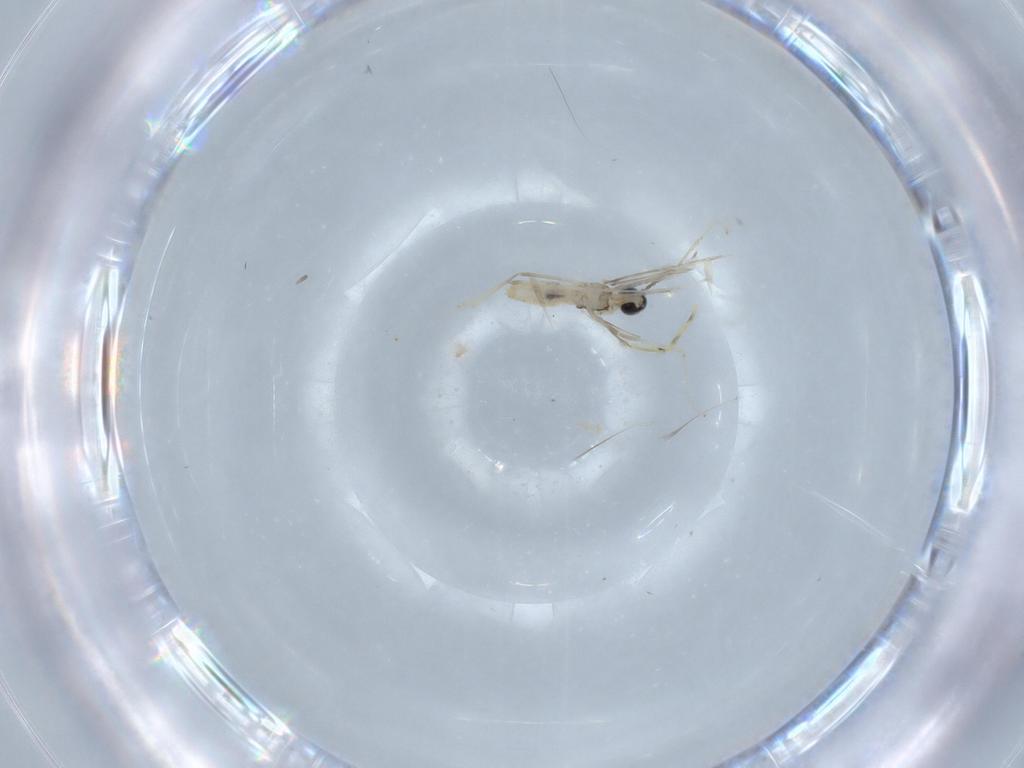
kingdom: Animalia
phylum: Arthropoda
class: Insecta
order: Diptera
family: Cecidomyiidae
